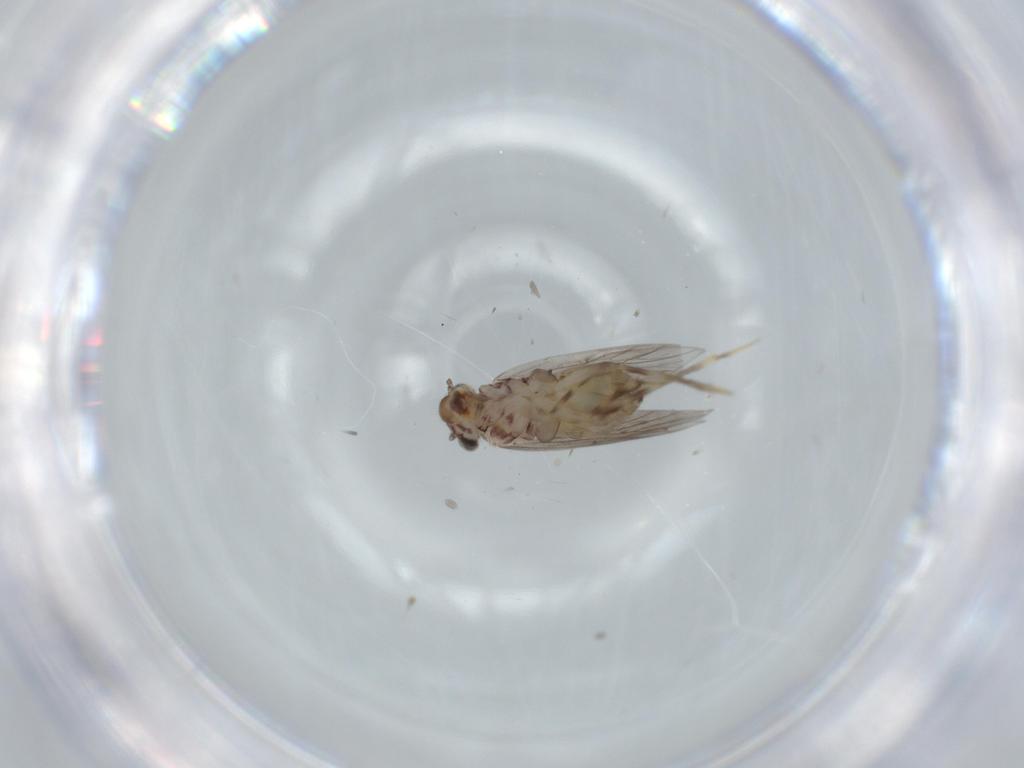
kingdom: Animalia
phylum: Arthropoda
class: Insecta
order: Psocodea
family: Lepidopsocidae
